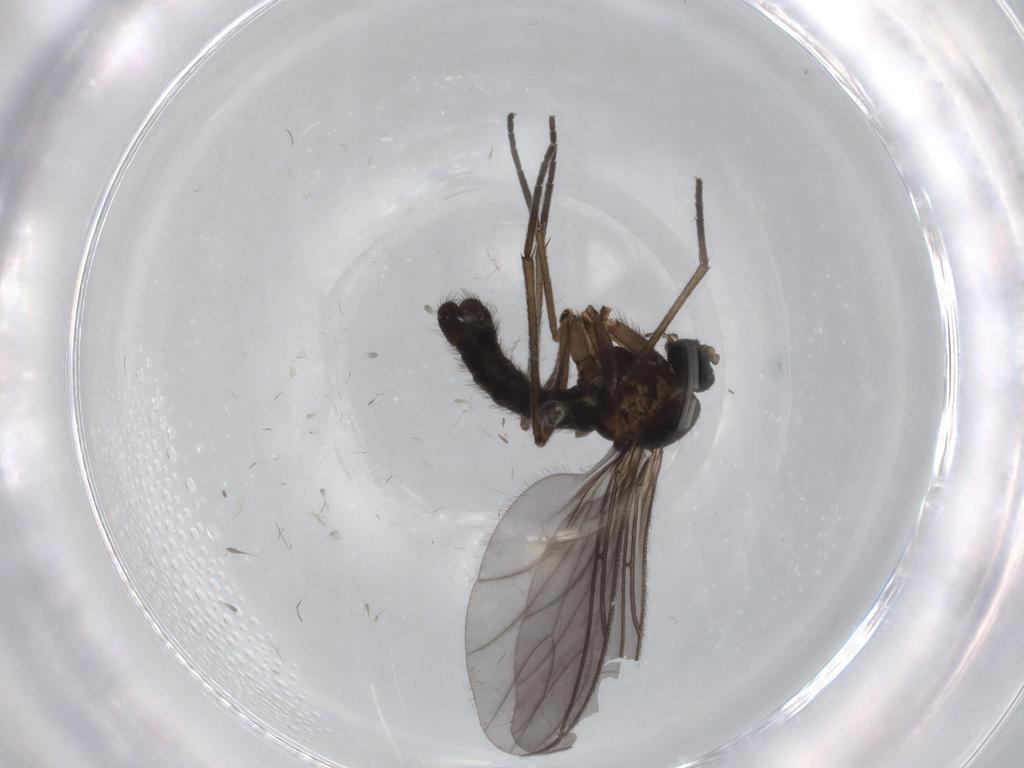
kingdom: Animalia
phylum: Arthropoda
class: Insecta
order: Diptera
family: Sciaridae
